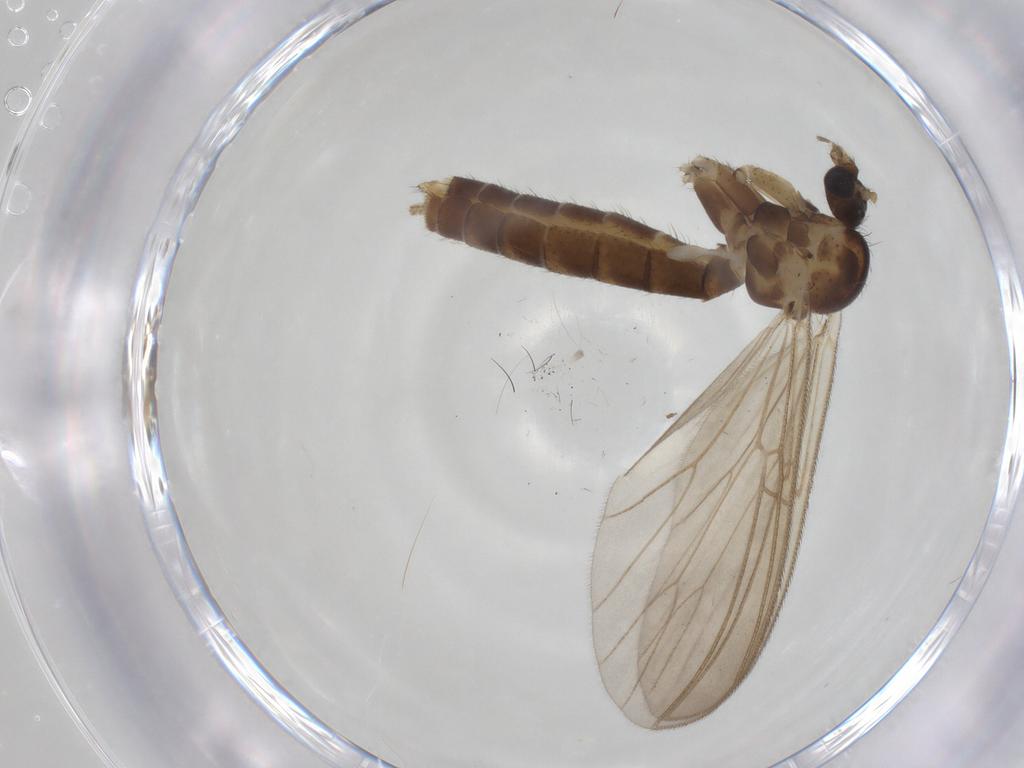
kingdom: Animalia
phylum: Arthropoda
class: Insecta
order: Diptera
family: Mycetophilidae
